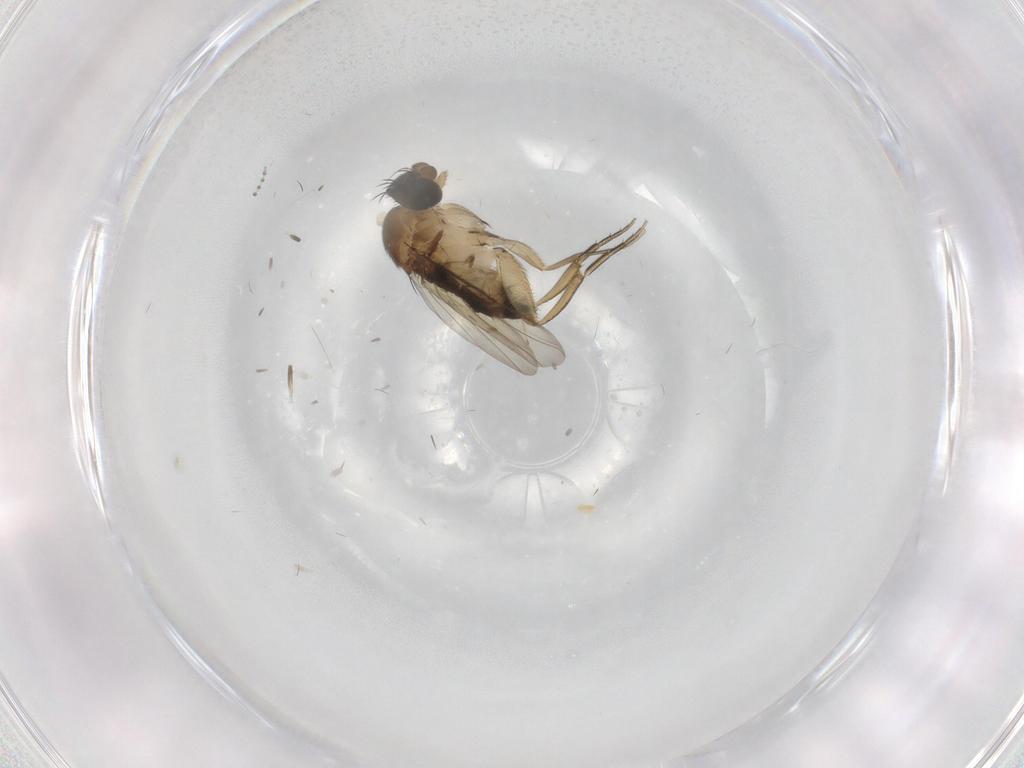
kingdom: Animalia
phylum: Arthropoda
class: Insecta
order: Diptera
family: Phoridae
